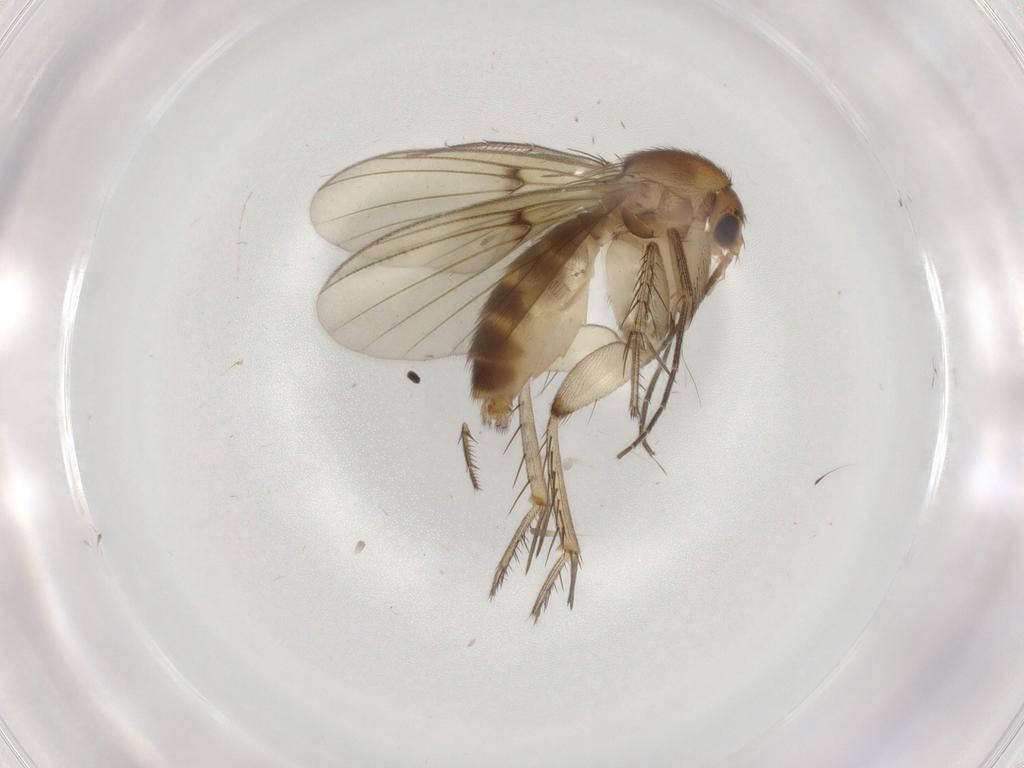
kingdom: Animalia
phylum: Arthropoda
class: Insecta
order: Diptera
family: Mycetophilidae
